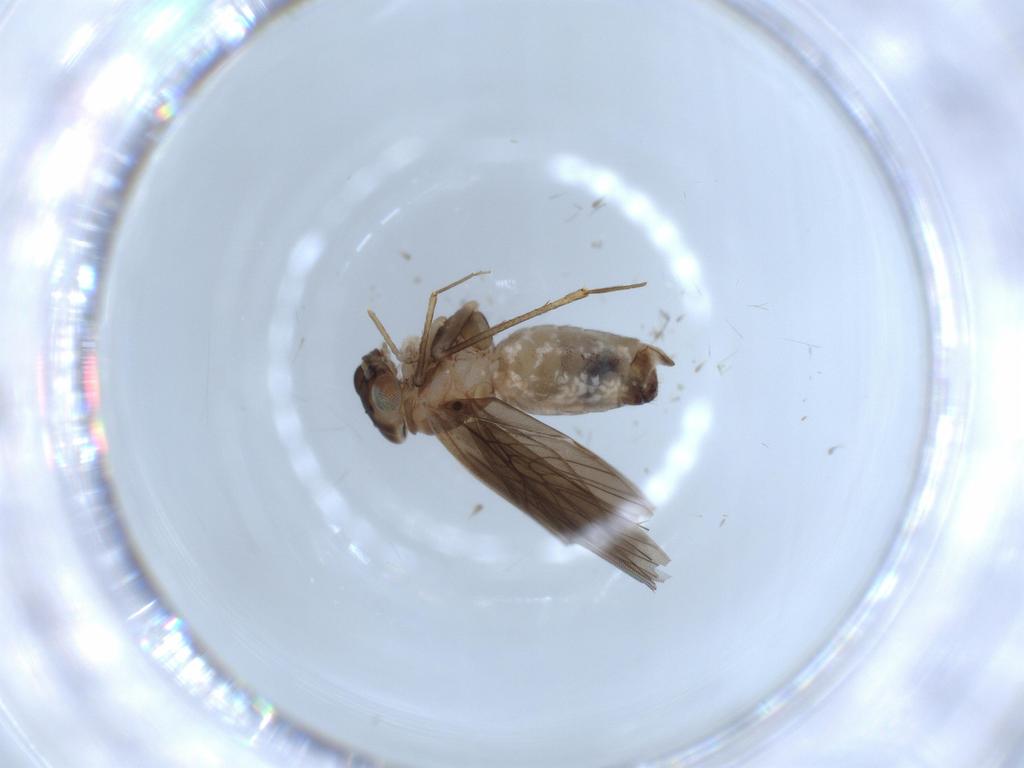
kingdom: Animalia
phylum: Arthropoda
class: Insecta
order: Psocodea
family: Lepidopsocidae
